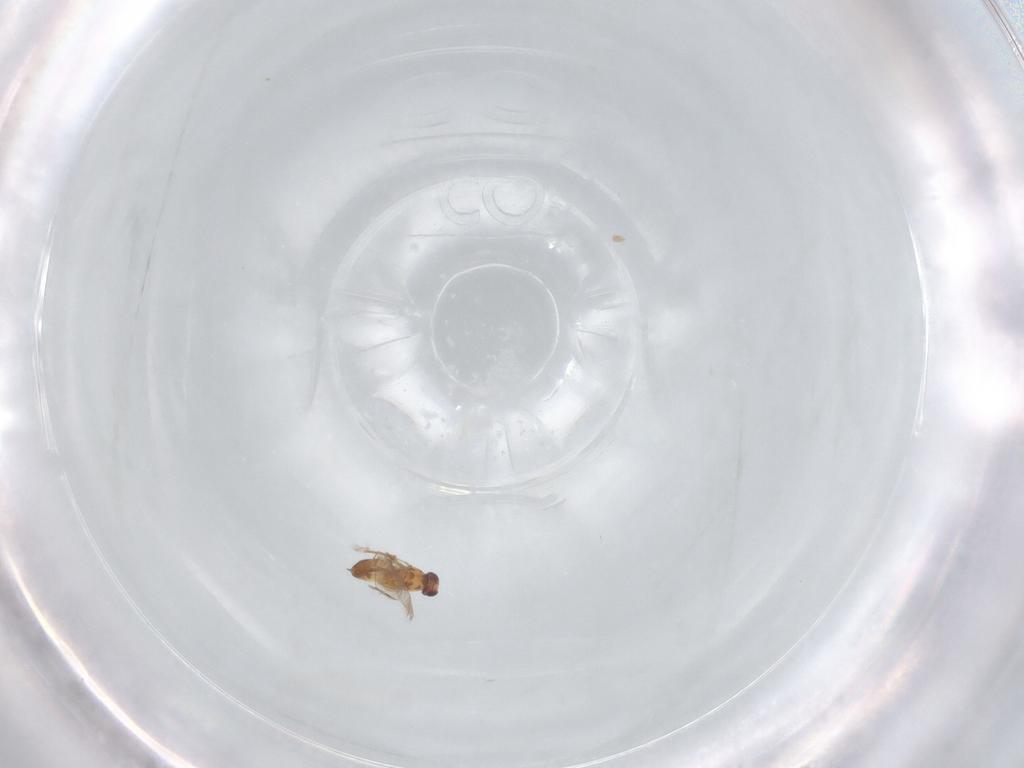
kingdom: Animalia
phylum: Arthropoda
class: Insecta
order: Hymenoptera
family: Mymaridae
